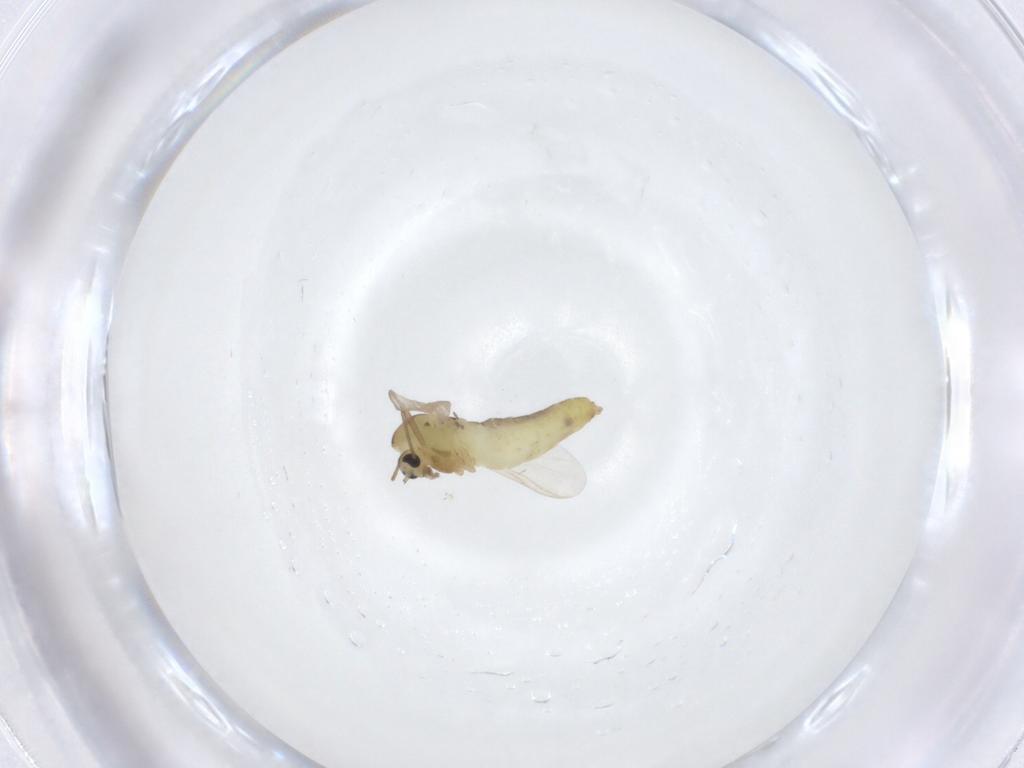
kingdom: Animalia
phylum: Arthropoda
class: Insecta
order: Diptera
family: Chironomidae
